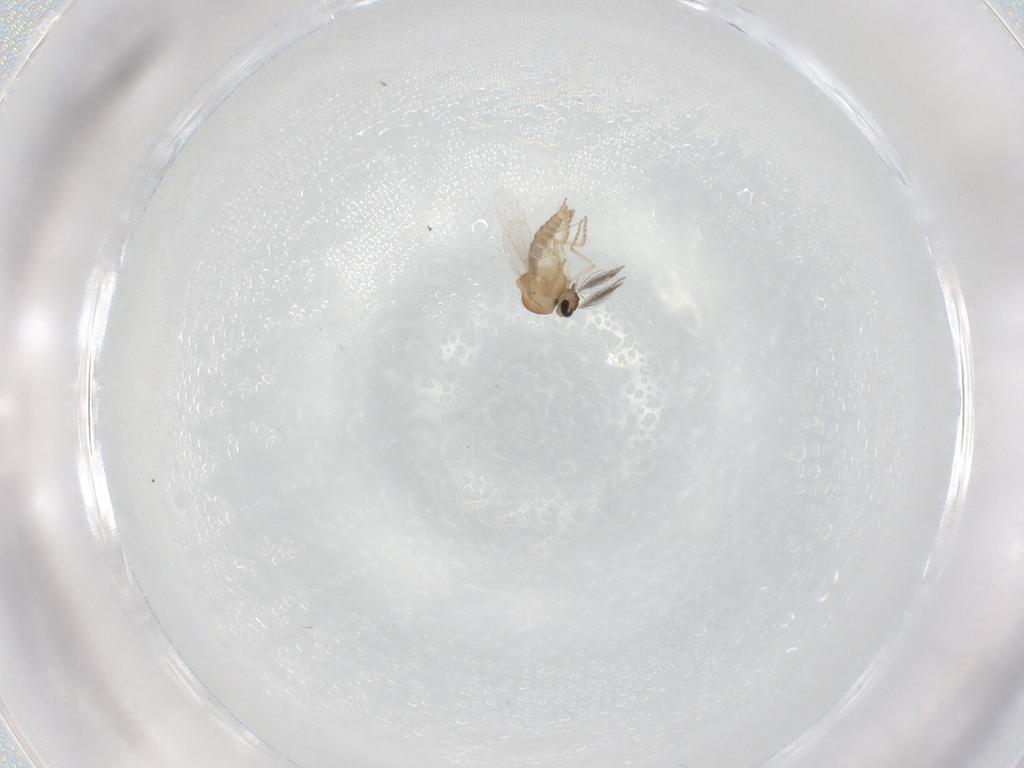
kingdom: Animalia
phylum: Arthropoda
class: Insecta
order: Diptera
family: Ceratopogonidae
